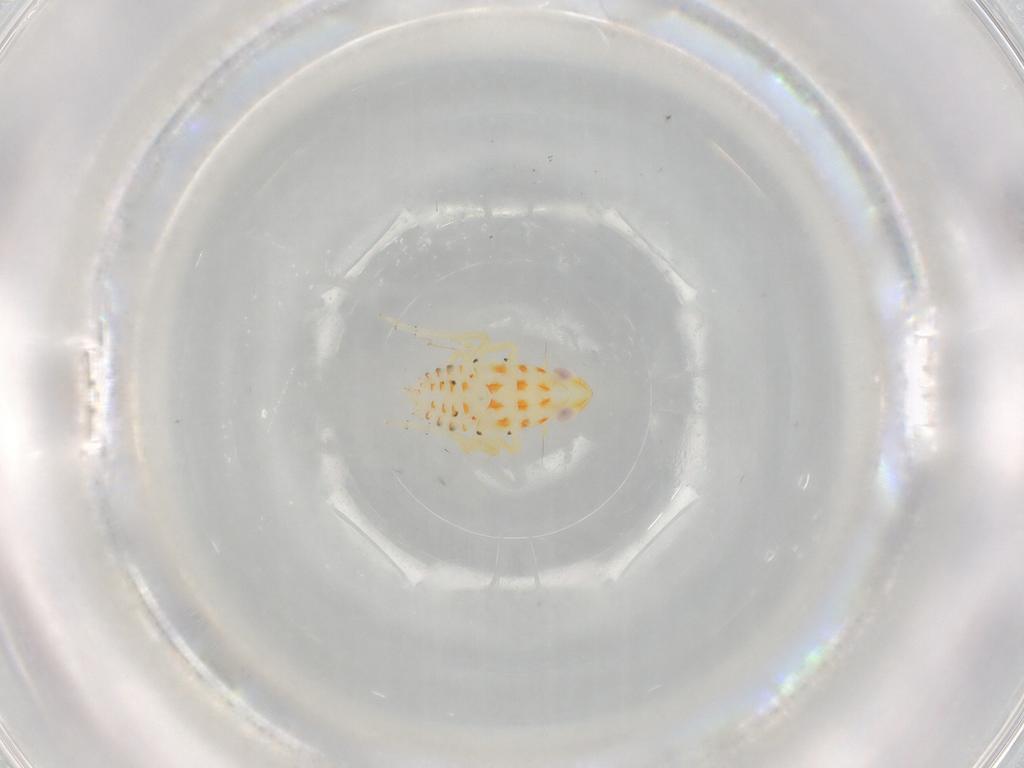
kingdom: Animalia
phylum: Arthropoda
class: Insecta
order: Hemiptera
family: Tropiduchidae
